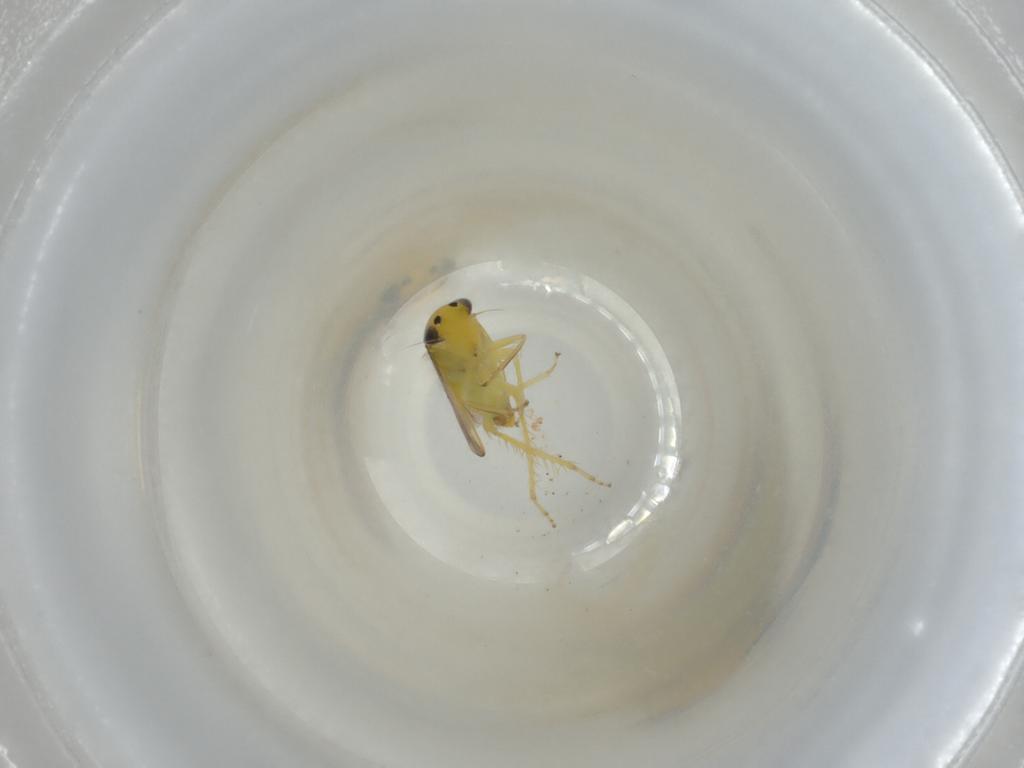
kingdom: Animalia
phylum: Arthropoda
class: Insecta
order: Hemiptera
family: Cicadellidae
